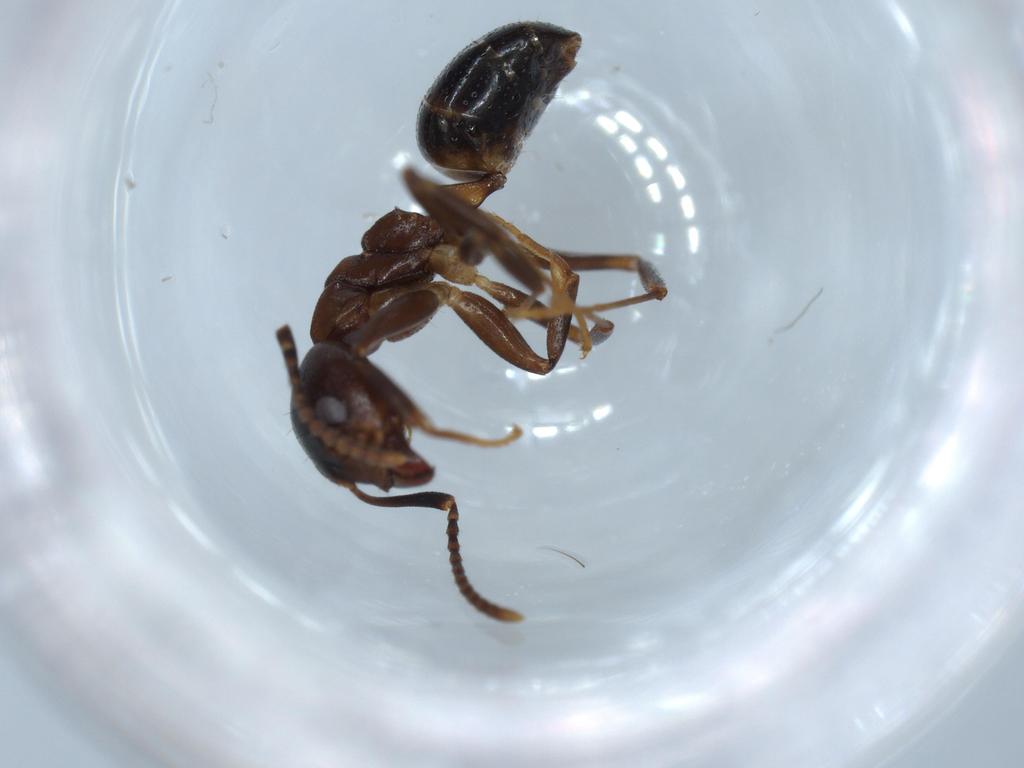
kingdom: Animalia
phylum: Arthropoda
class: Insecta
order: Hymenoptera
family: Formicidae
